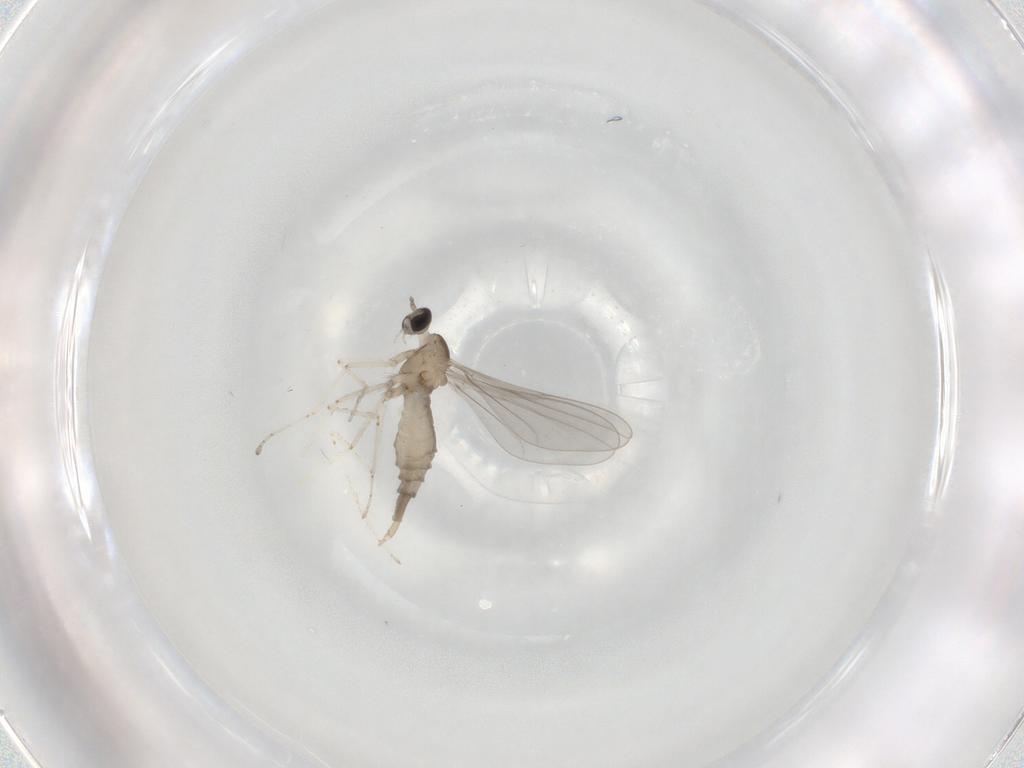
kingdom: Animalia
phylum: Arthropoda
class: Insecta
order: Diptera
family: Cecidomyiidae
